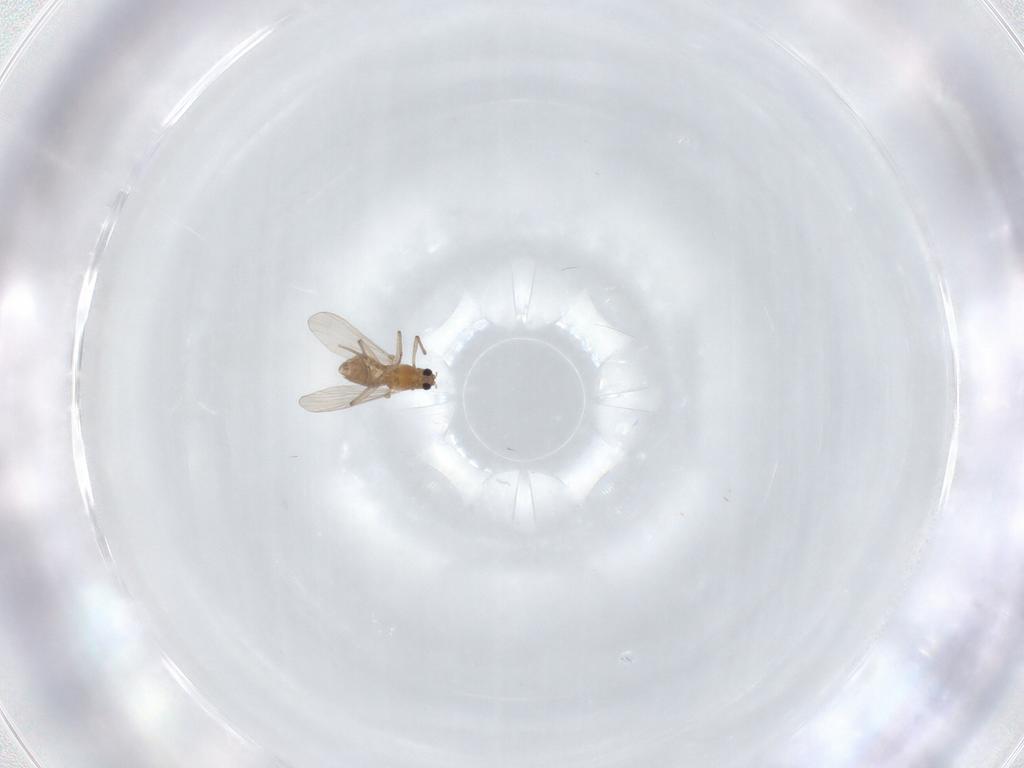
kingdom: Animalia
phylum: Arthropoda
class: Insecta
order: Diptera
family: Chironomidae
